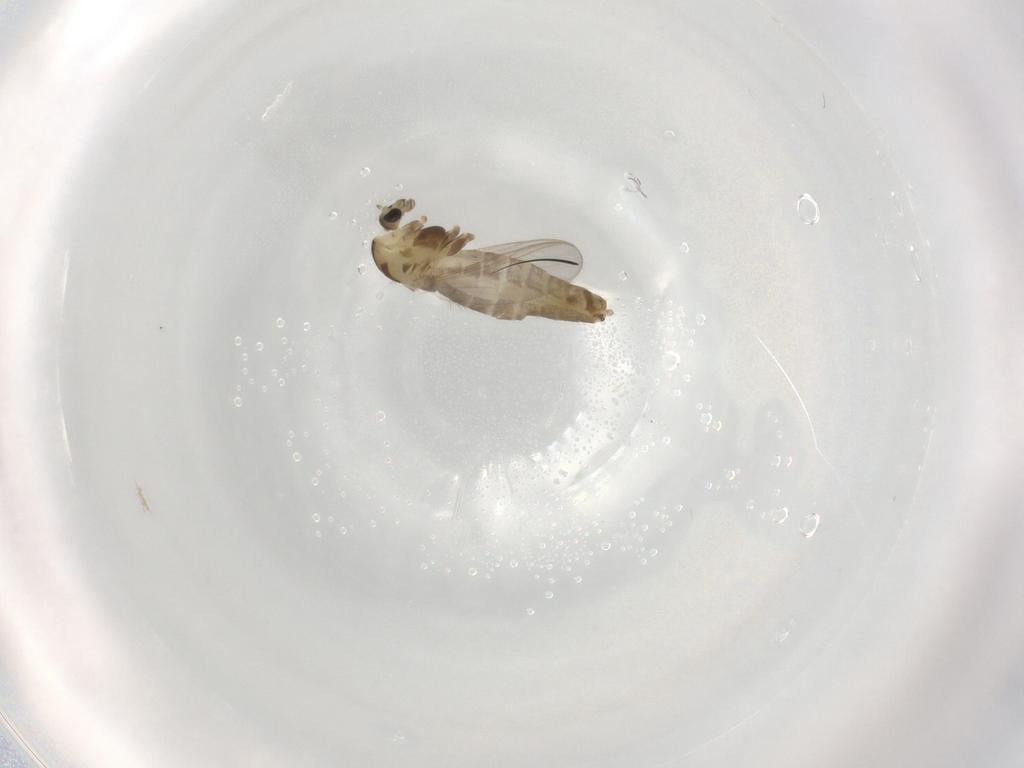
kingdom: Animalia
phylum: Arthropoda
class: Insecta
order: Diptera
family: Chironomidae
